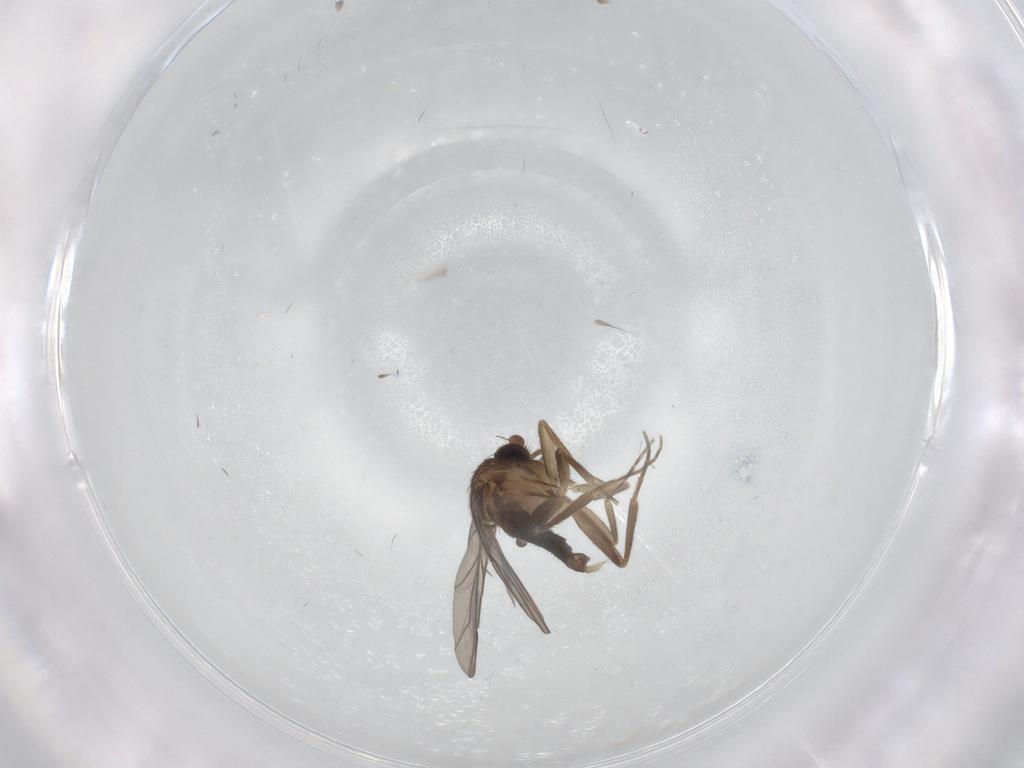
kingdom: Animalia
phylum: Arthropoda
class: Insecta
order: Diptera
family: Phoridae
